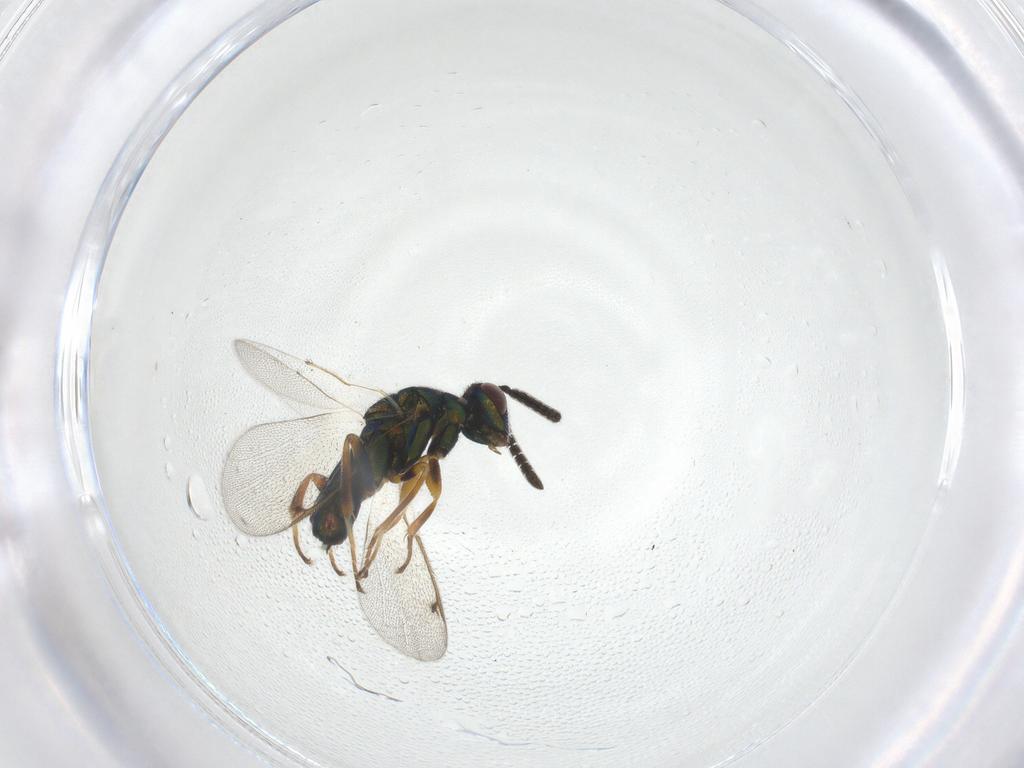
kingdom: Animalia
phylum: Arthropoda
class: Insecta
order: Hymenoptera
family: Torymidae
